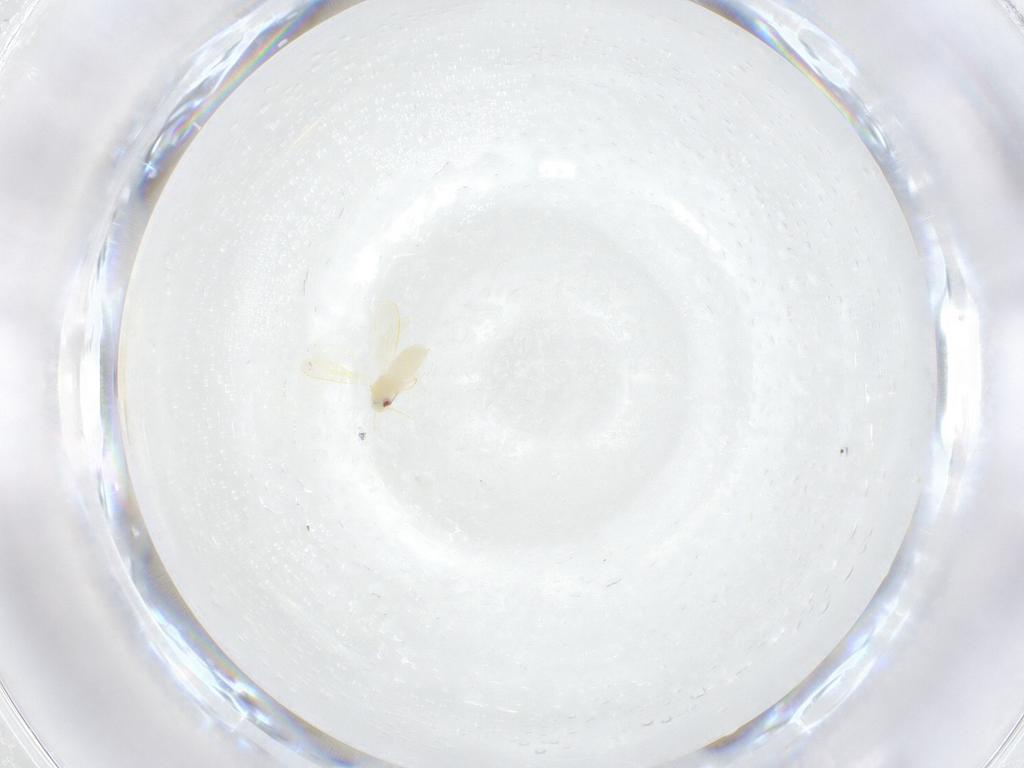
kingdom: Animalia
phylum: Arthropoda
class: Insecta
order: Hemiptera
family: Aleyrodidae
